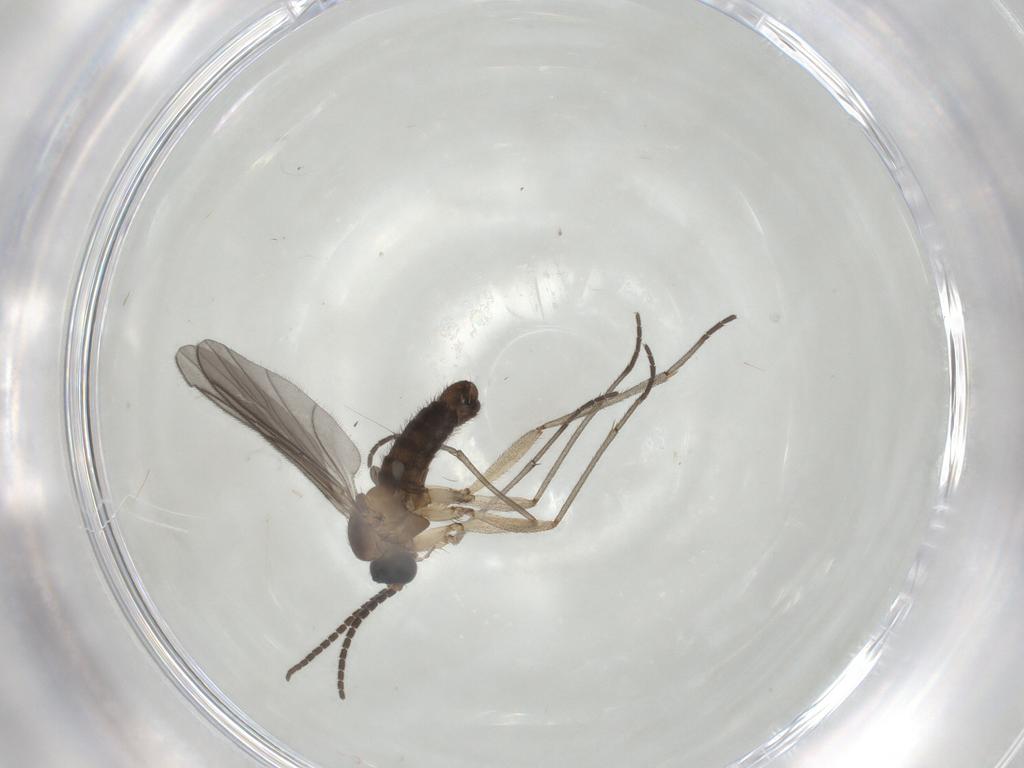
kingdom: Animalia
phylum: Arthropoda
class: Insecta
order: Diptera
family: Sciaridae
